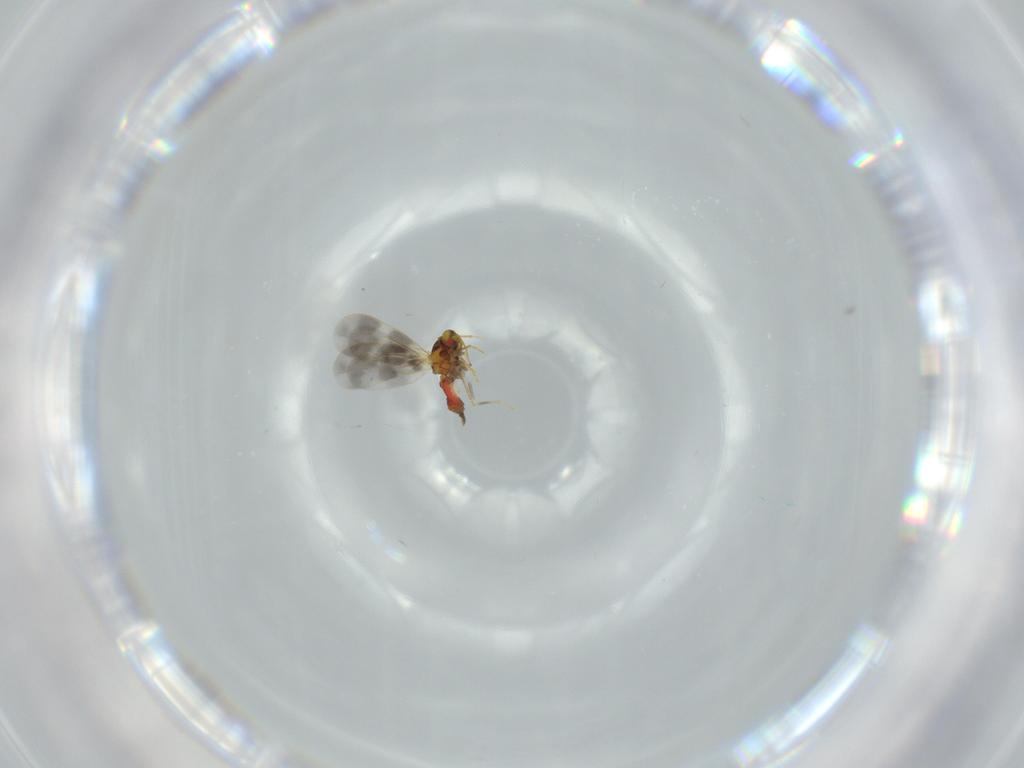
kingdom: Animalia
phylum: Arthropoda
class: Insecta
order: Hemiptera
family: Aleyrodidae
